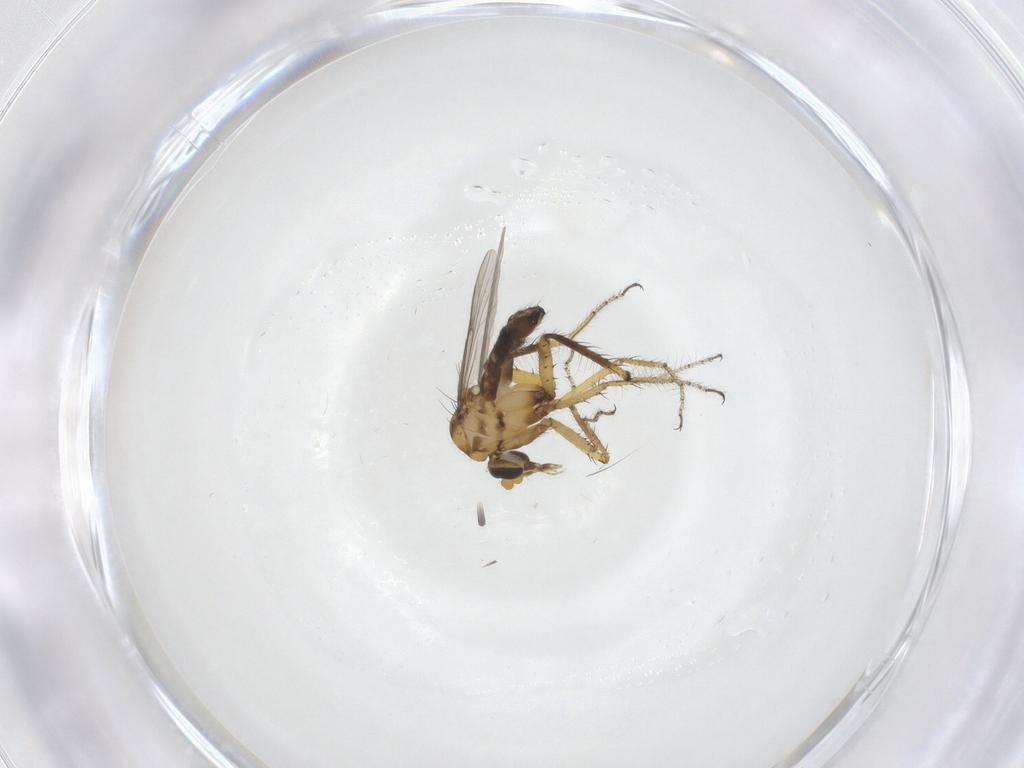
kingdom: Animalia
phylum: Arthropoda
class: Insecta
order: Diptera
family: Ceratopogonidae
